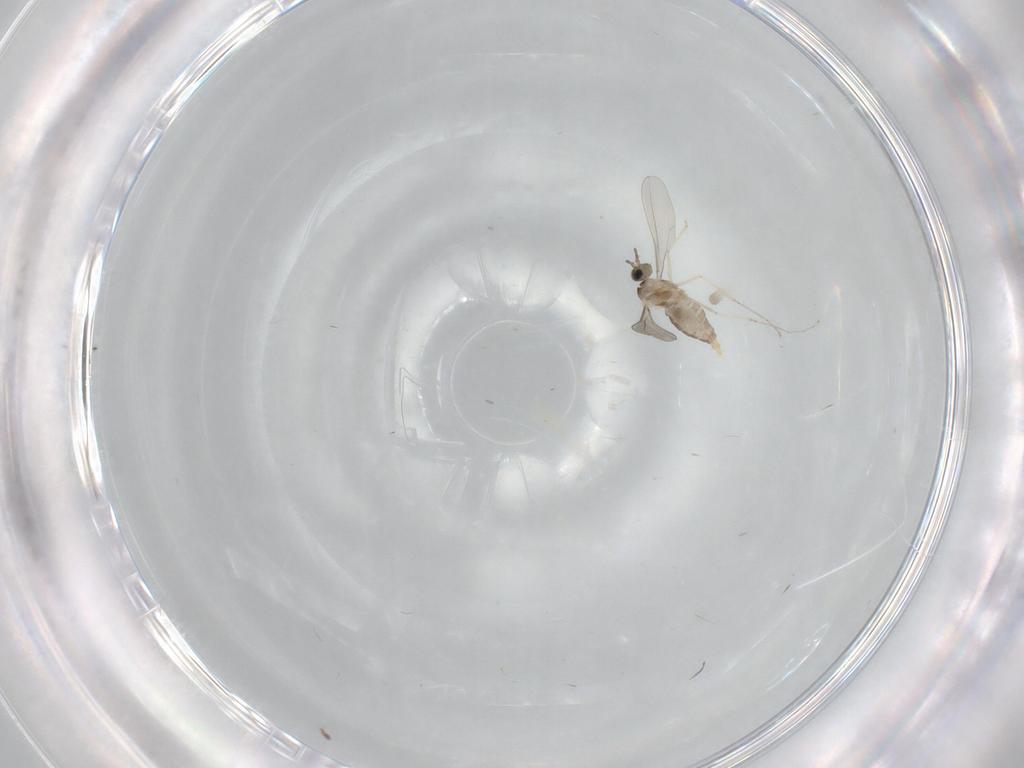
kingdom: Animalia
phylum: Arthropoda
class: Insecta
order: Diptera
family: Cecidomyiidae
